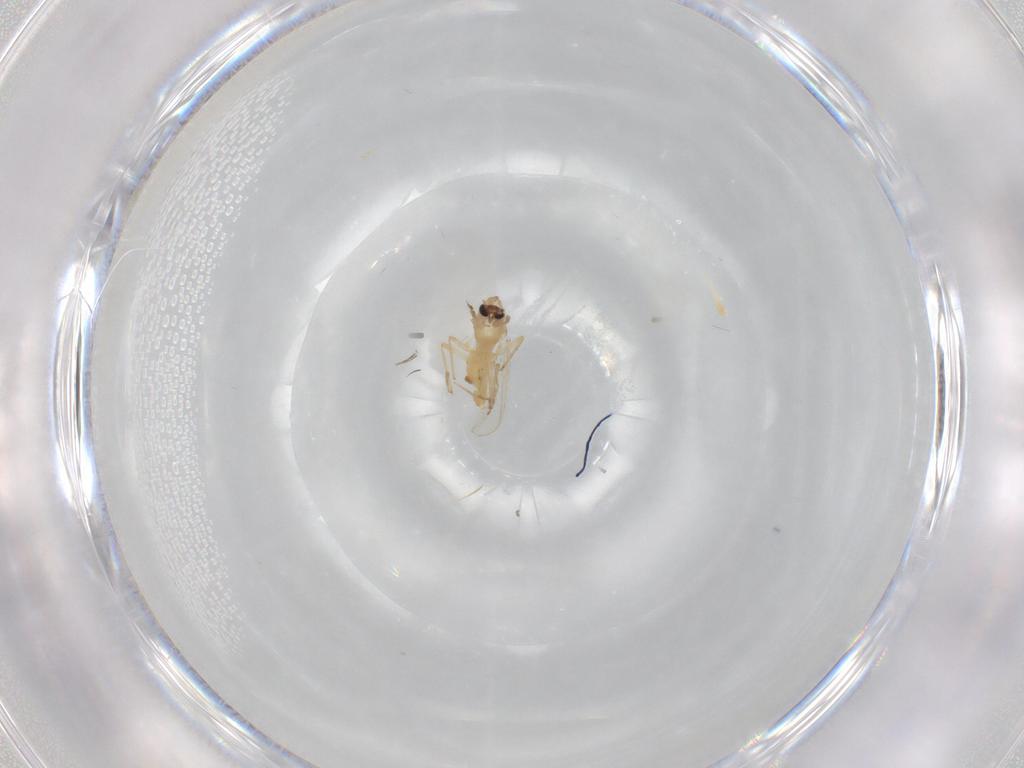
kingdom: Animalia
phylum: Arthropoda
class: Insecta
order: Diptera
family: Chironomidae
